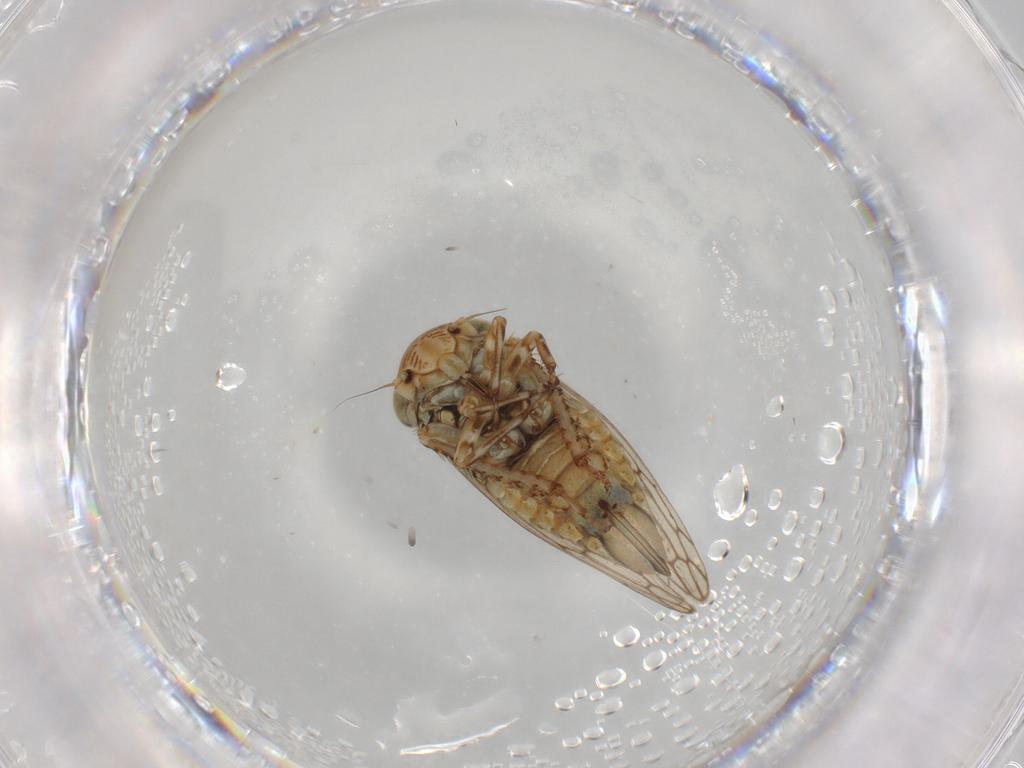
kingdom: Animalia
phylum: Arthropoda
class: Insecta
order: Hemiptera
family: Cicadellidae
